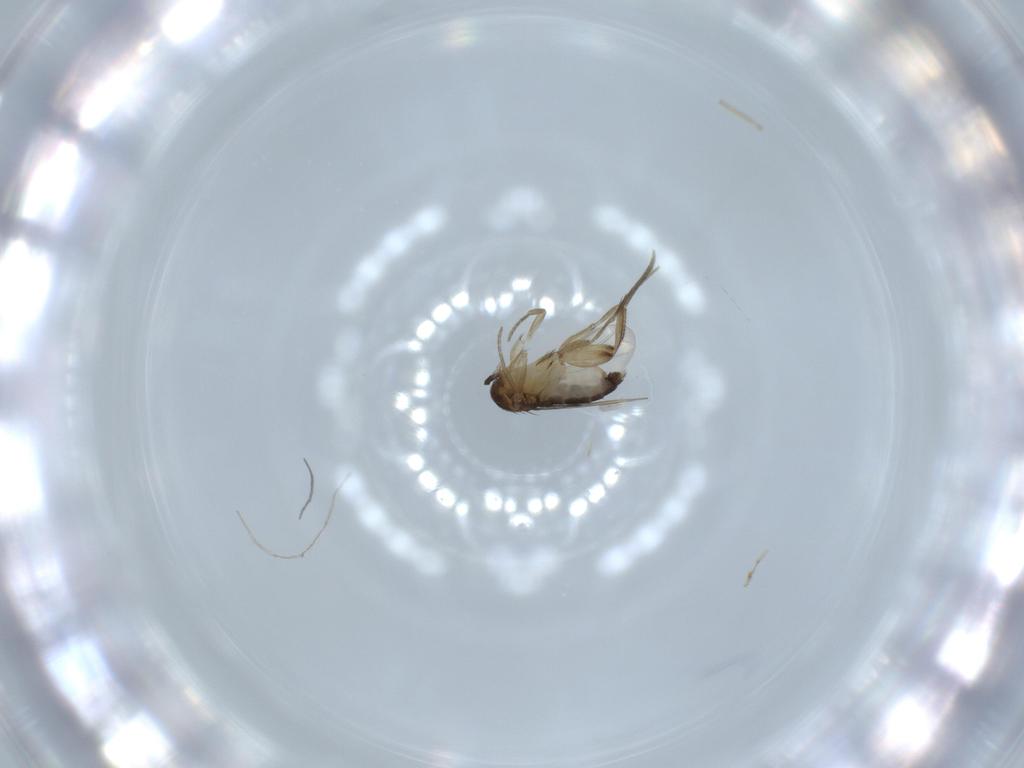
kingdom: Animalia
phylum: Arthropoda
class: Insecta
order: Diptera
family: Phoridae
